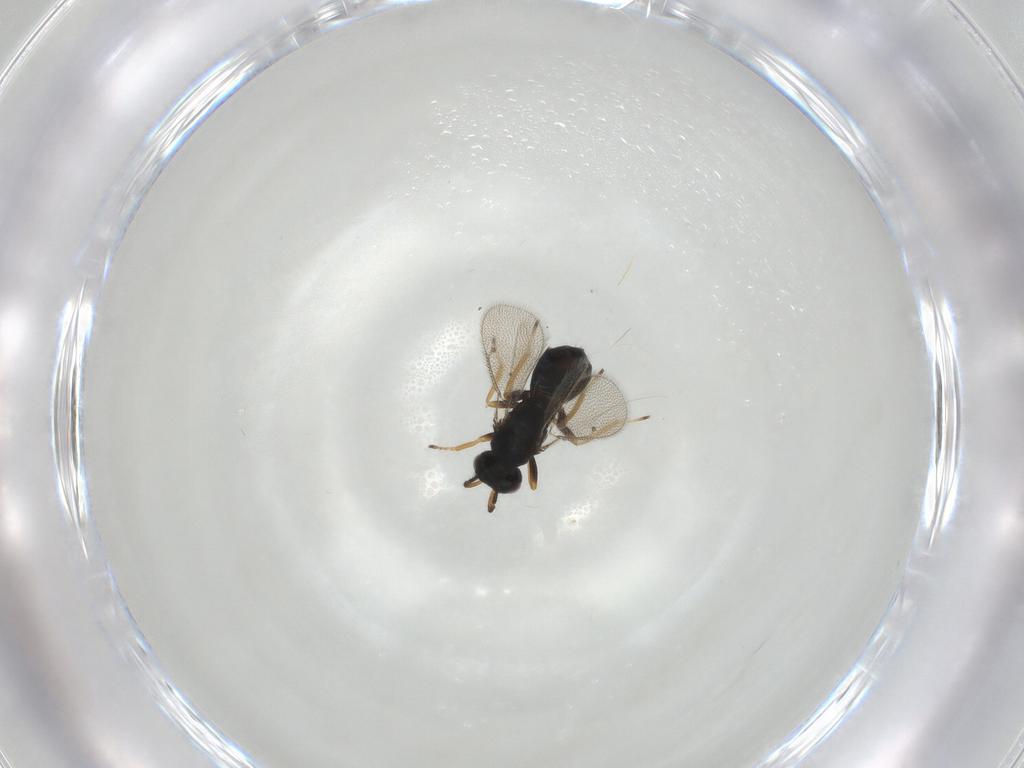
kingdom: Animalia
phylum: Arthropoda
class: Insecta
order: Hymenoptera
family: Eulophidae
